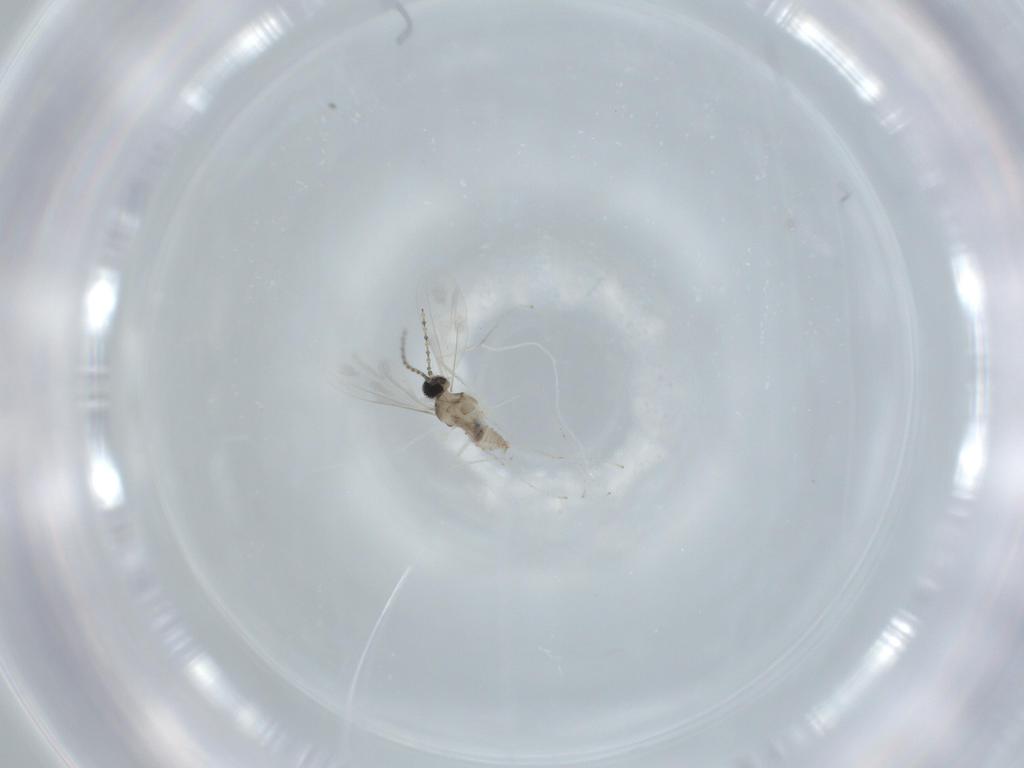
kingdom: Animalia
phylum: Arthropoda
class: Insecta
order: Diptera
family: Cecidomyiidae
